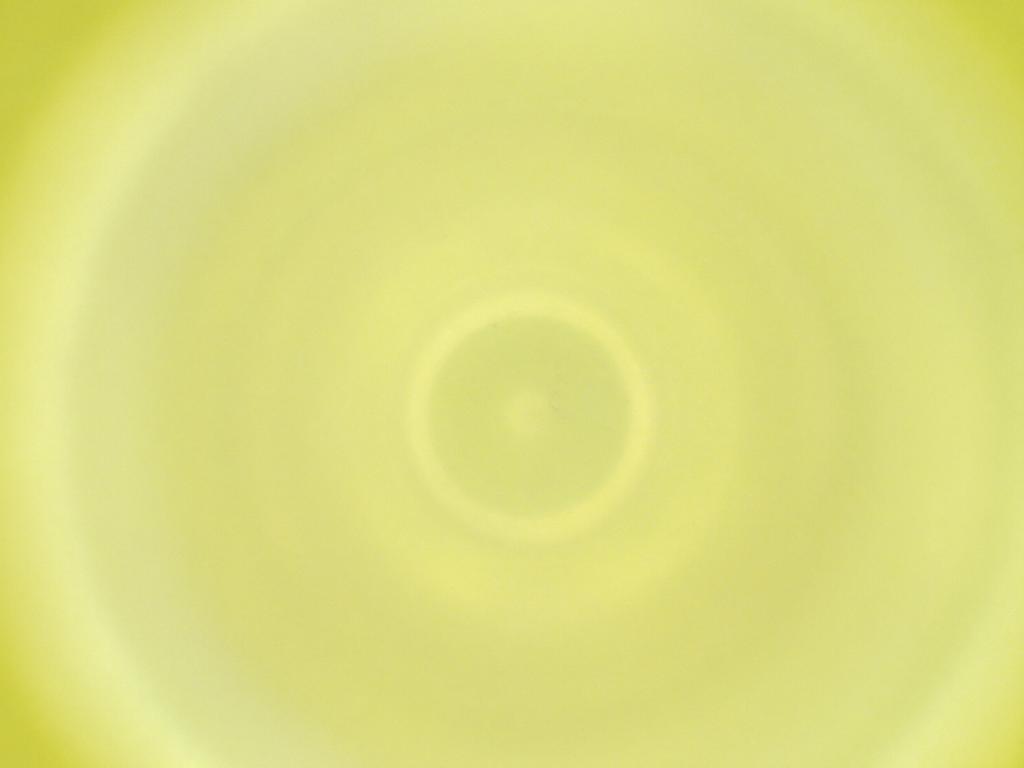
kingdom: Animalia
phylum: Arthropoda
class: Insecta
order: Diptera
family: Cecidomyiidae
